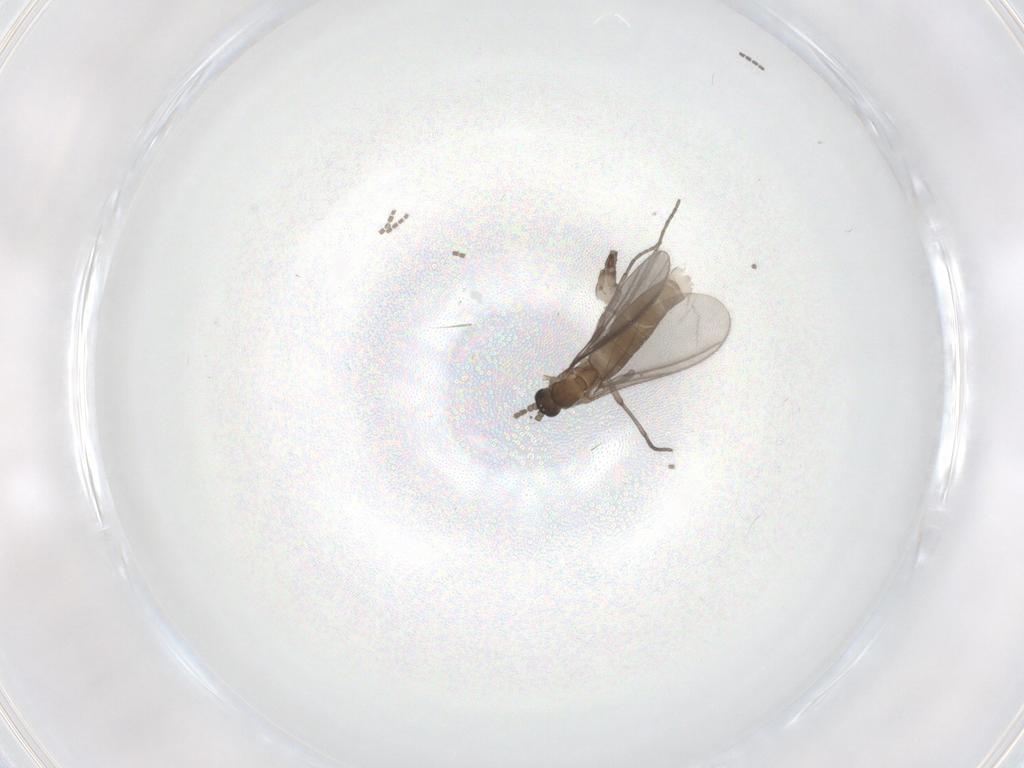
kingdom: Animalia
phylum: Arthropoda
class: Insecta
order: Diptera
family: Sciaridae
